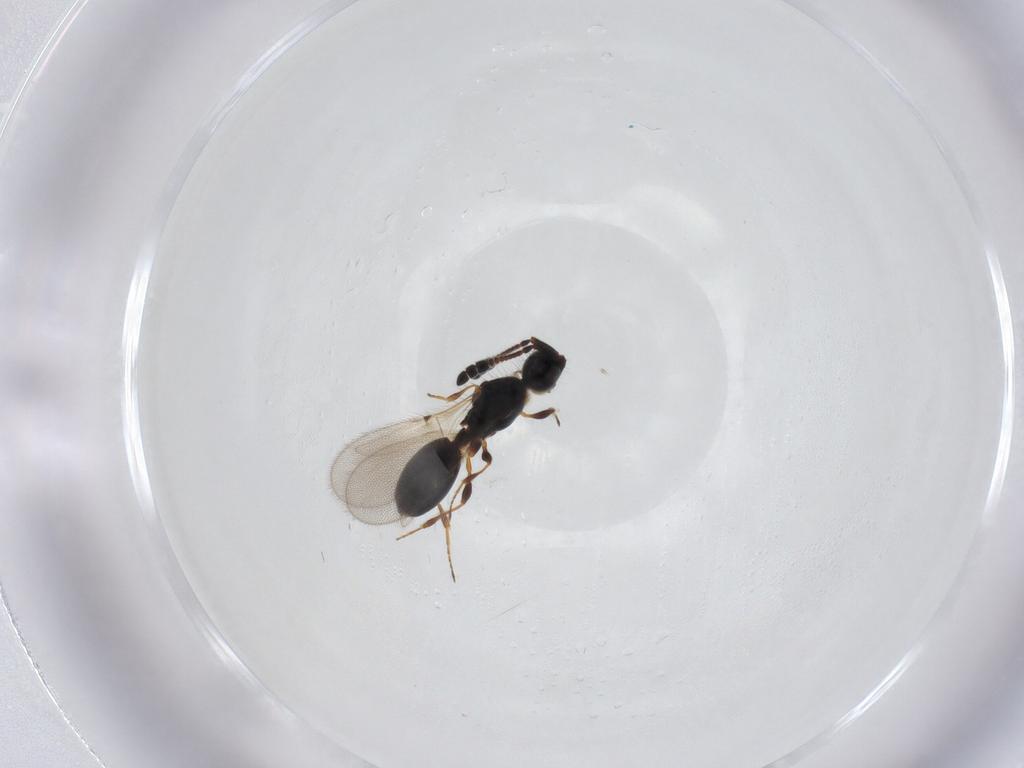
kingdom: Animalia
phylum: Arthropoda
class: Insecta
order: Hymenoptera
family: Diapriidae
